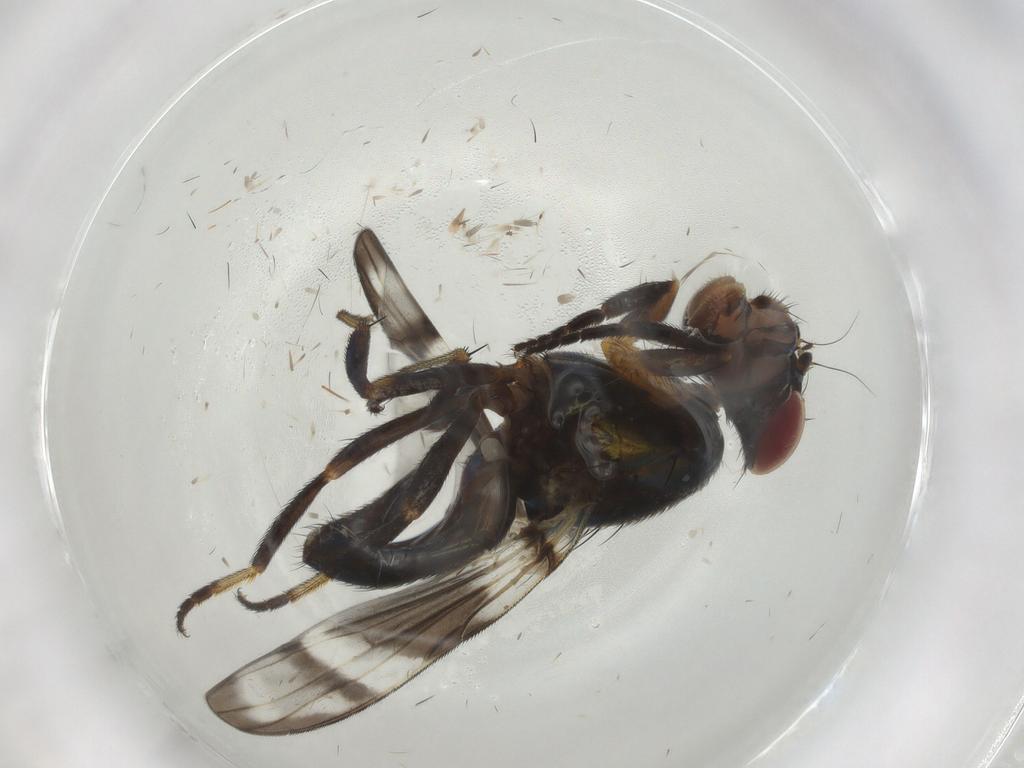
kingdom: Animalia
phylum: Arthropoda
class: Insecta
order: Diptera
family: Ulidiidae
